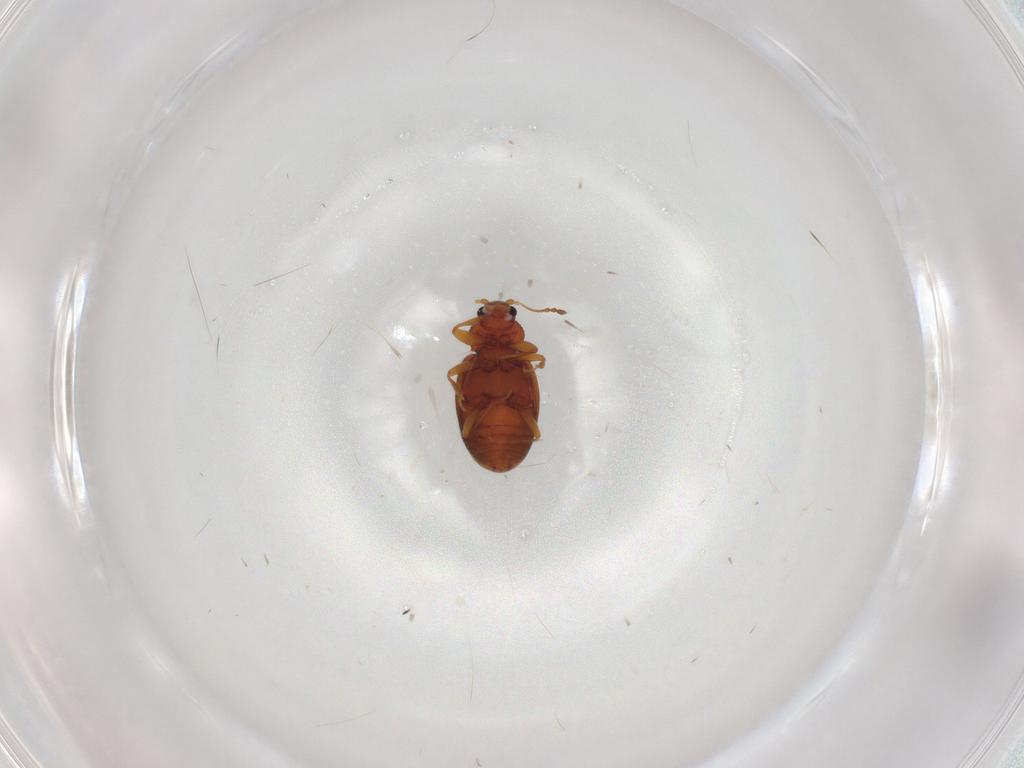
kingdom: Animalia
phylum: Arthropoda
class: Insecta
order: Coleoptera
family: Latridiidae
